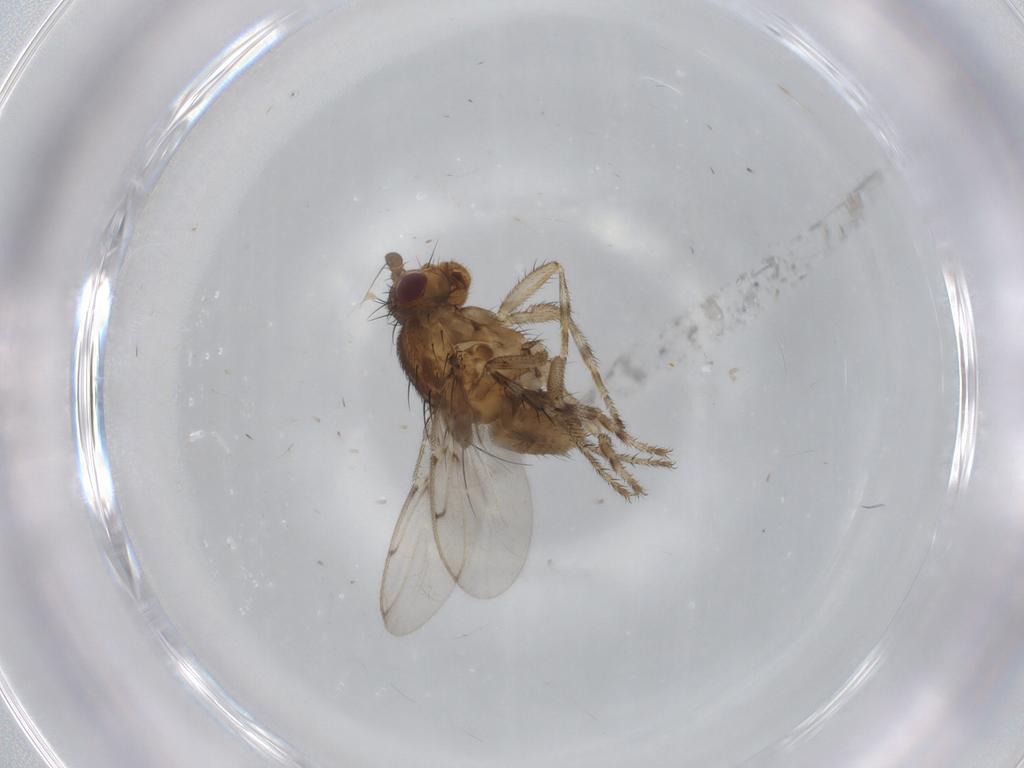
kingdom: Animalia
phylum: Arthropoda
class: Insecta
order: Diptera
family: Sphaeroceridae
